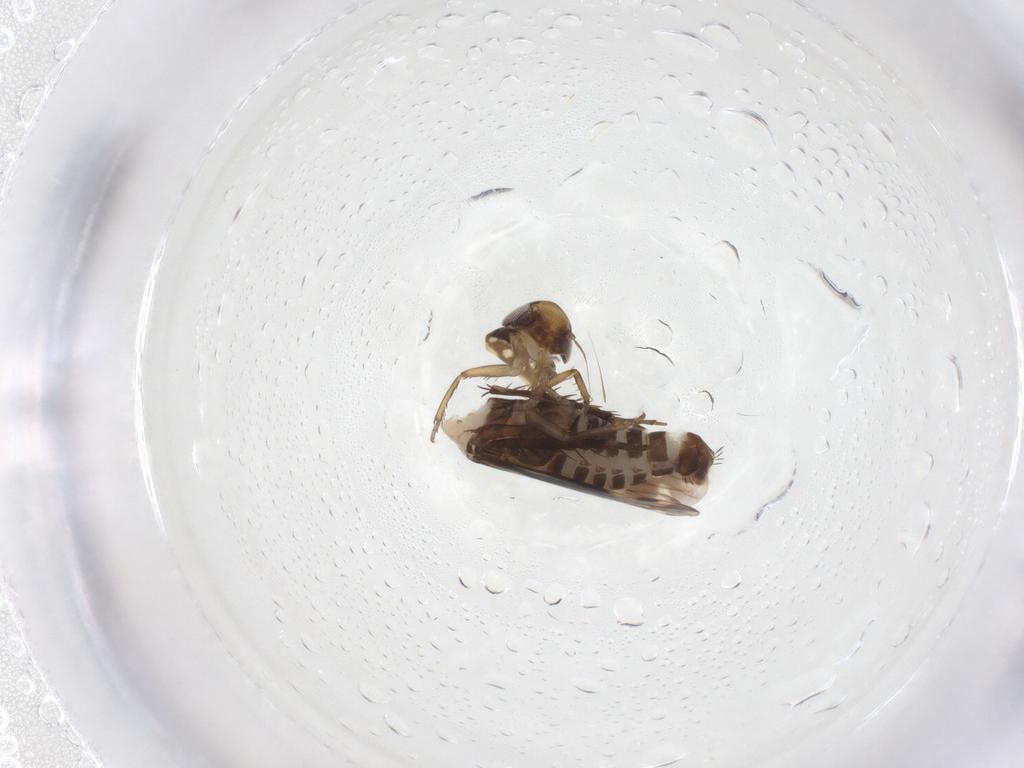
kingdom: Animalia
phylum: Arthropoda
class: Insecta
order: Hemiptera
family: Cicadellidae
